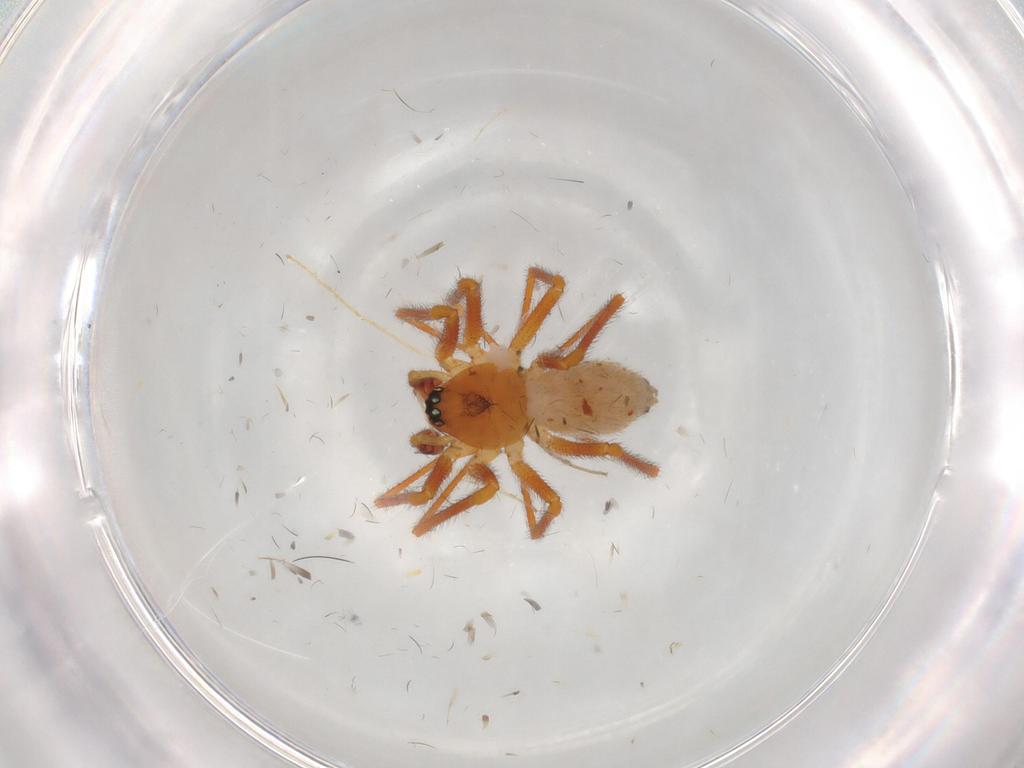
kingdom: Animalia
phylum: Arthropoda
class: Arachnida
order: Araneae
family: Linyphiidae
